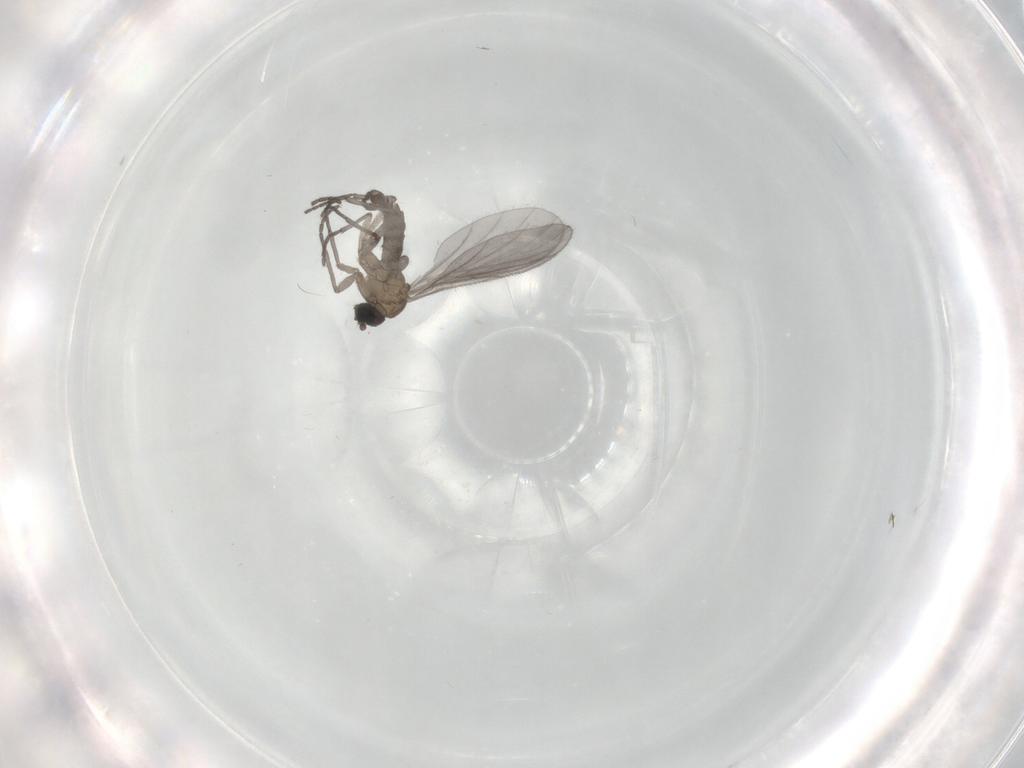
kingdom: Animalia
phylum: Arthropoda
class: Insecta
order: Diptera
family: Sciaridae
